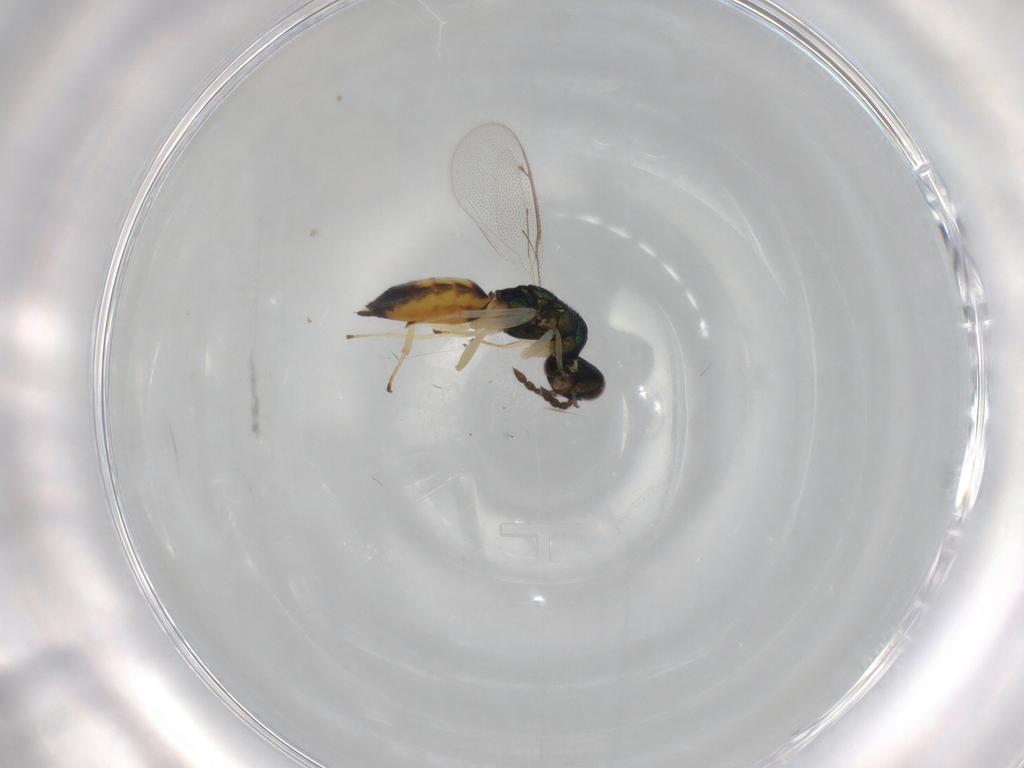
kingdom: Animalia
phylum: Arthropoda
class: Insecta
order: Hymenoptera
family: Eulophidae
